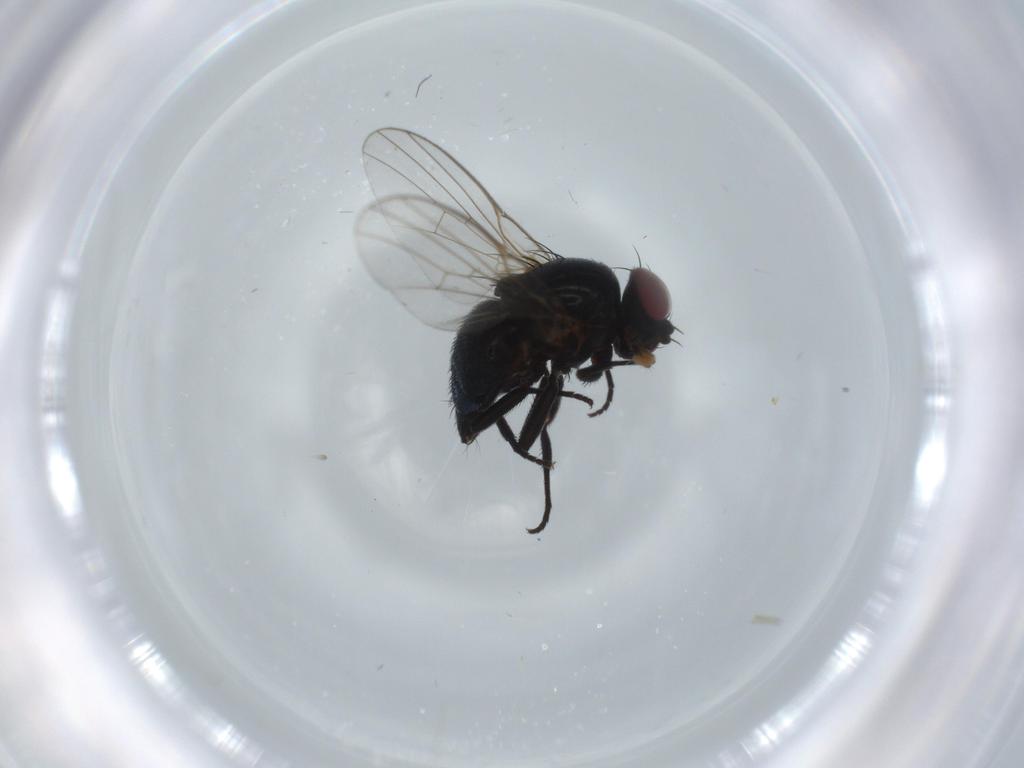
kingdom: Animalia
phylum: Arthropoda
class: Insecta
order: Diptera
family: Agromyzidae
